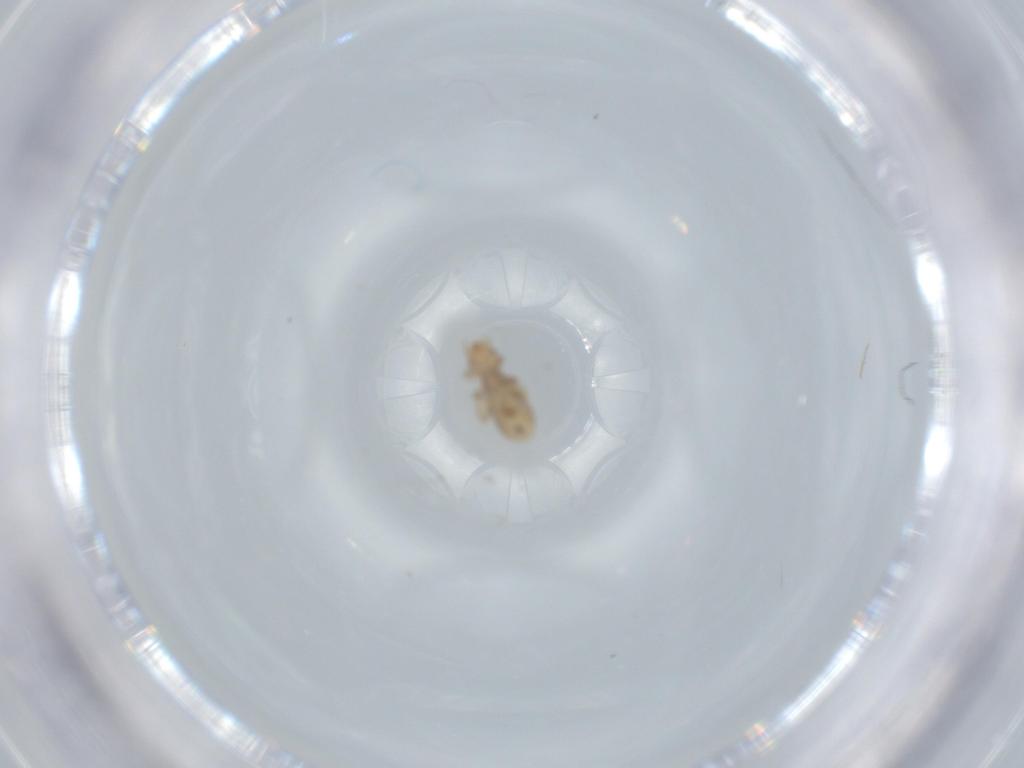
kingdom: Animalia
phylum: Arthropoda
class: Insecta
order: Psocodea
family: Liposcelididae
